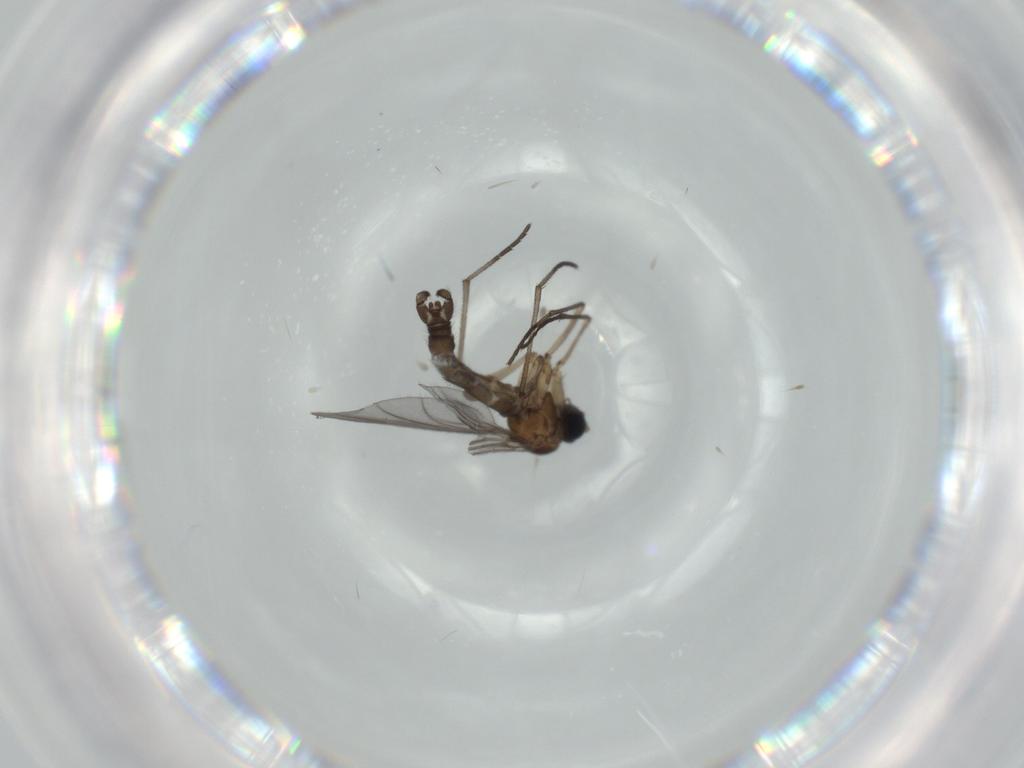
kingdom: Animalia
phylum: Arthropoda
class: Insecta
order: Diptera
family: Sciaridae
